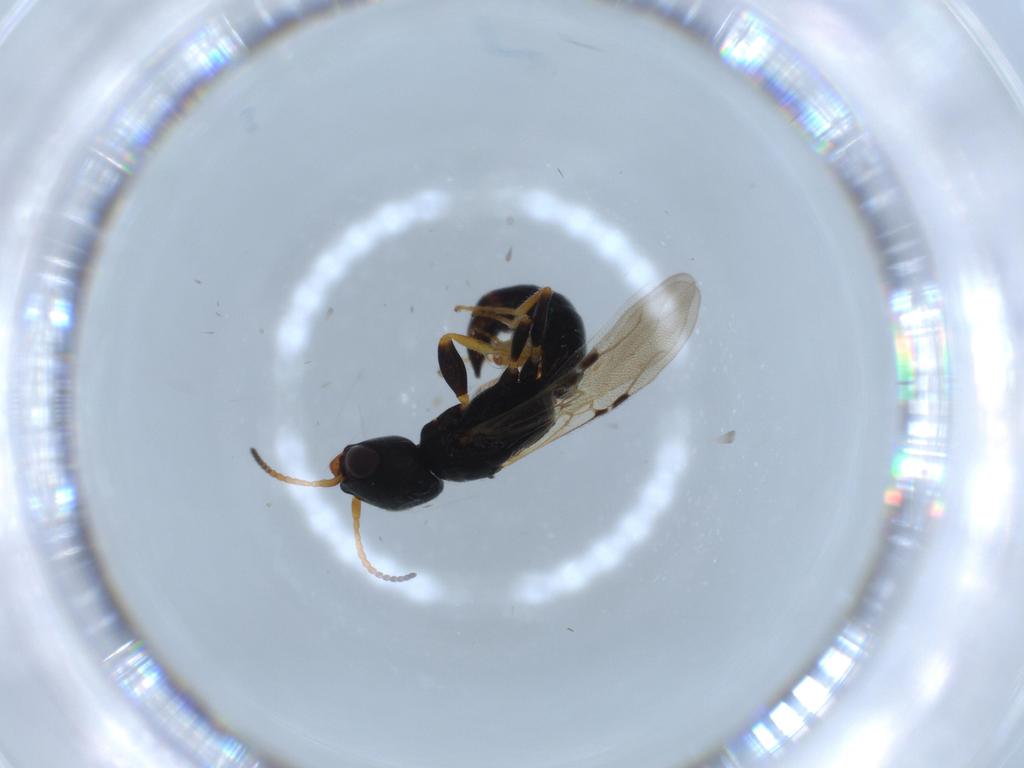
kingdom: Animalia
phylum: Arthropoda
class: Insecta
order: Hymenoptera
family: Bethylidae
